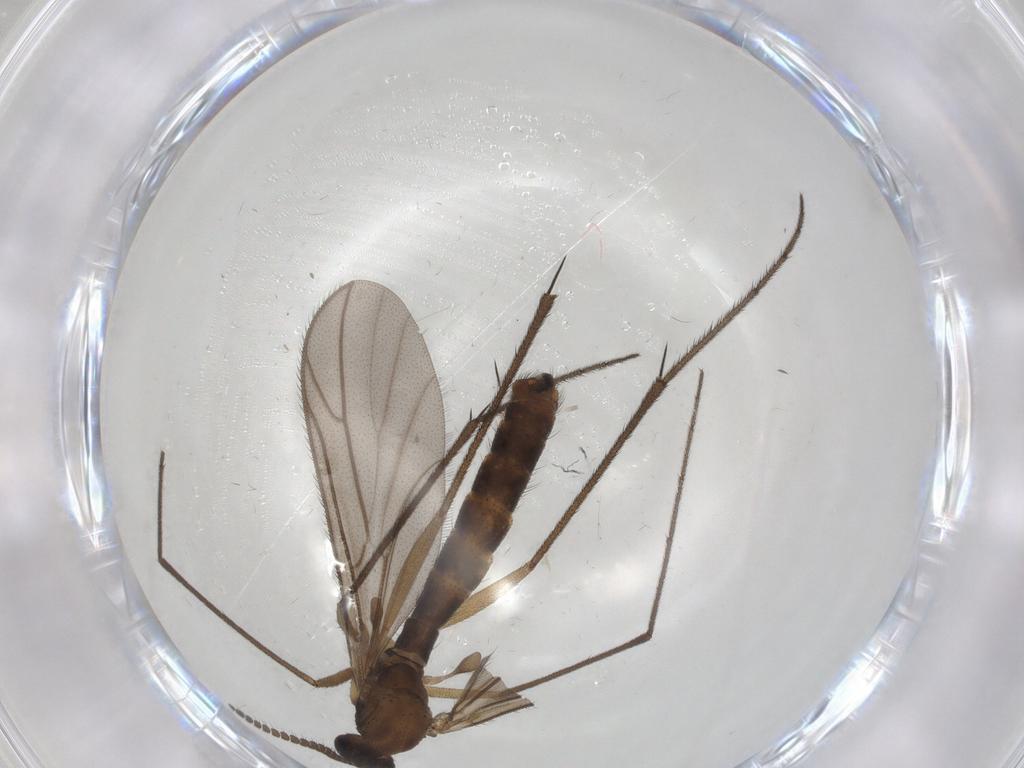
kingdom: Animalia
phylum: Arthropoda
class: Insecta
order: Diptera
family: Ditomyiidae
